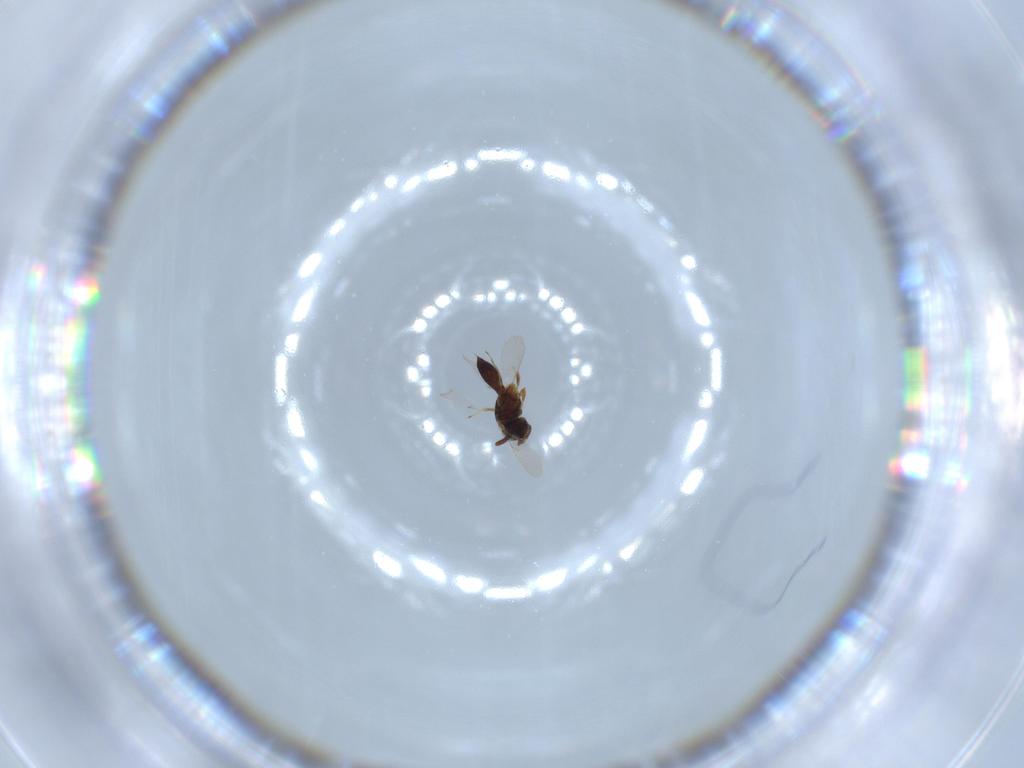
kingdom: Animalia
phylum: Arthropoda
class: Insecta
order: Hymenoptera
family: Scelionidae
